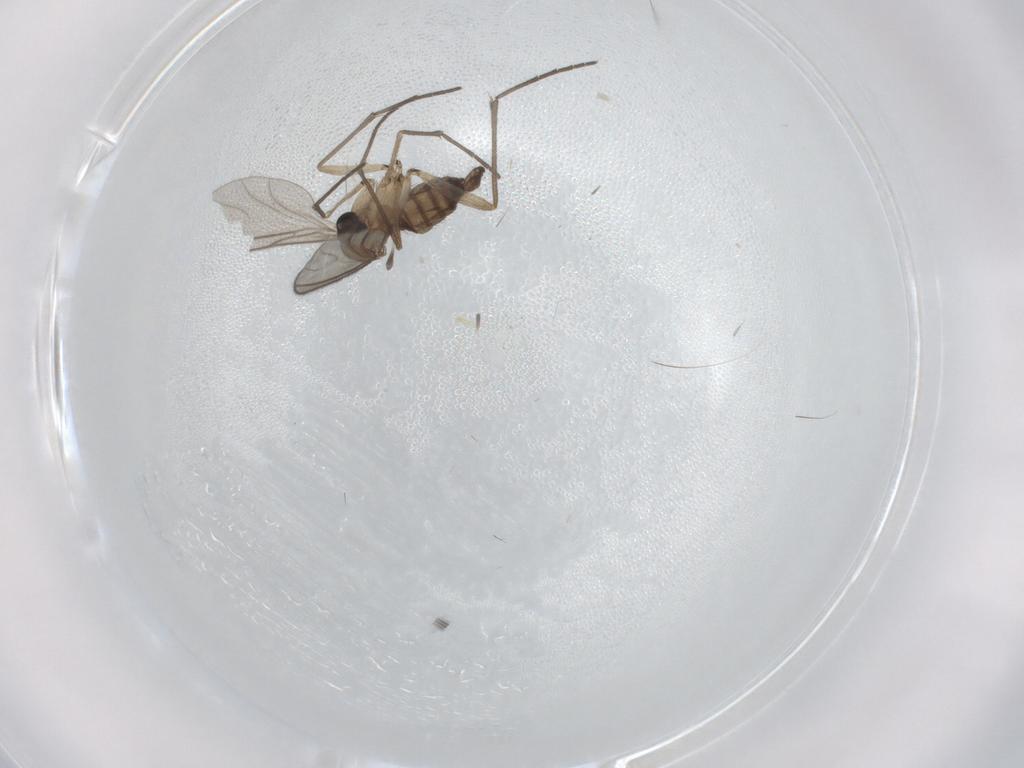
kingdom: Animalia
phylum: Arthropoda
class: Insecta
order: Diptera
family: Sciaridae
